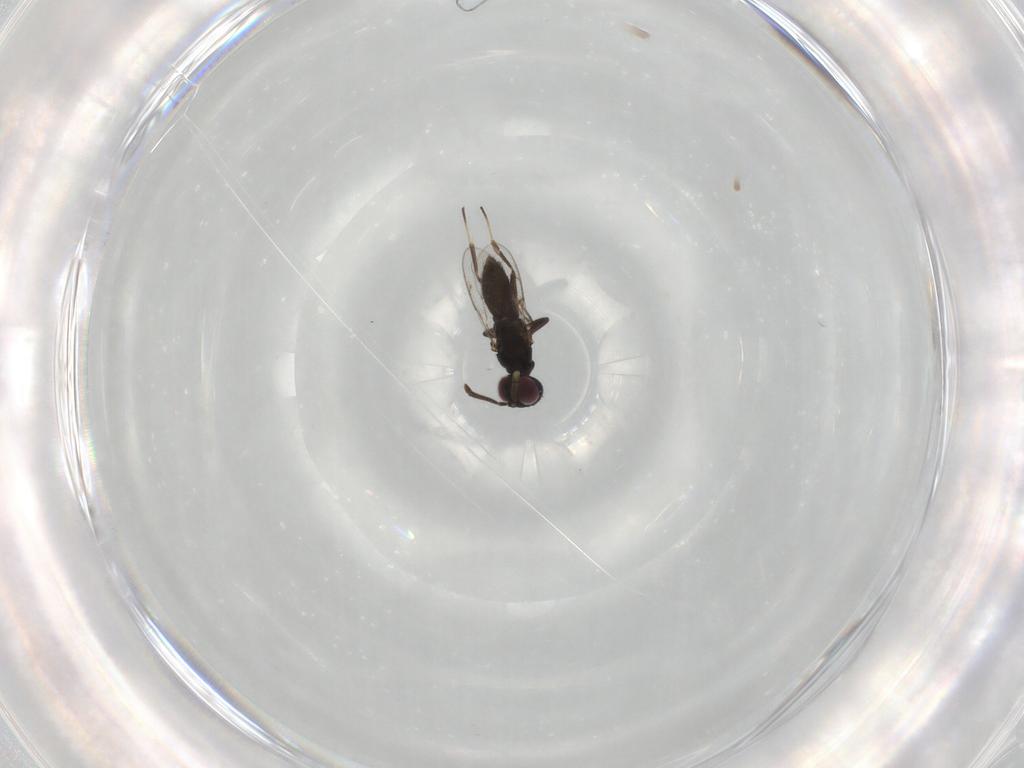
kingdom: Animalia
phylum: Arthropoda
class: Insecta
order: Hymenoptera
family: Eupelmidae
